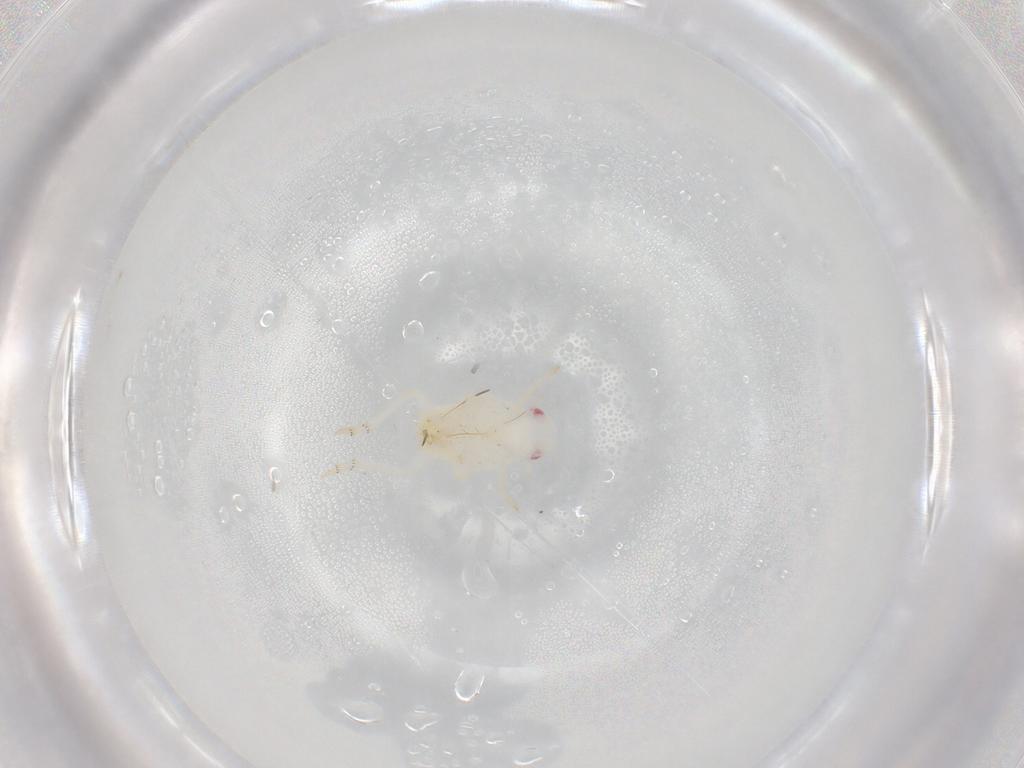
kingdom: Animalia
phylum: Arthropoda
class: Insecta
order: Hemiptera
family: Flatidae
